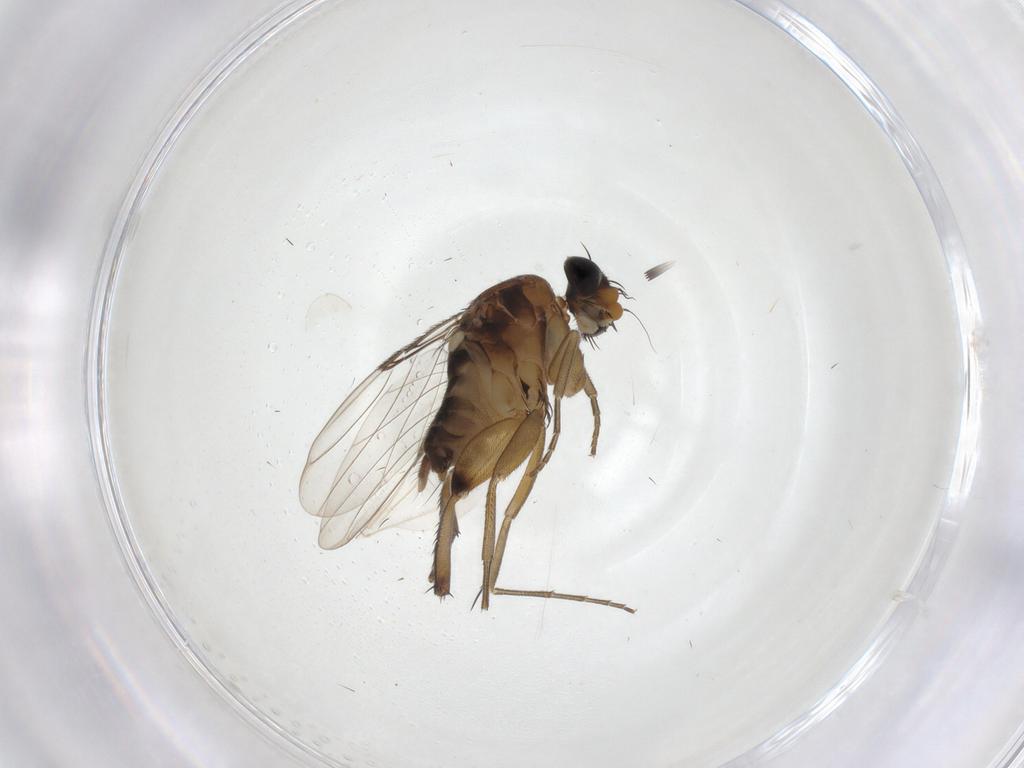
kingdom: Animalia
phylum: Arthropoda
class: Insecta
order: Diptera
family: Phoridae
